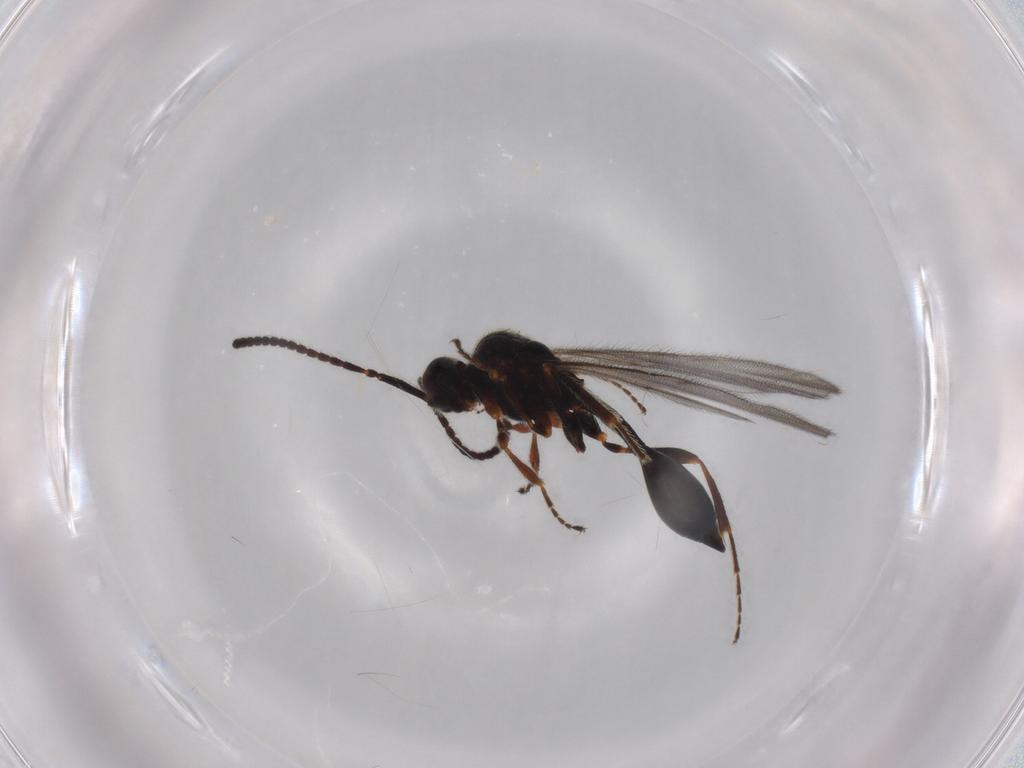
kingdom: Animalia
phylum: Arthropoda
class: Insecta
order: Hymenoptera
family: Diapriidae
